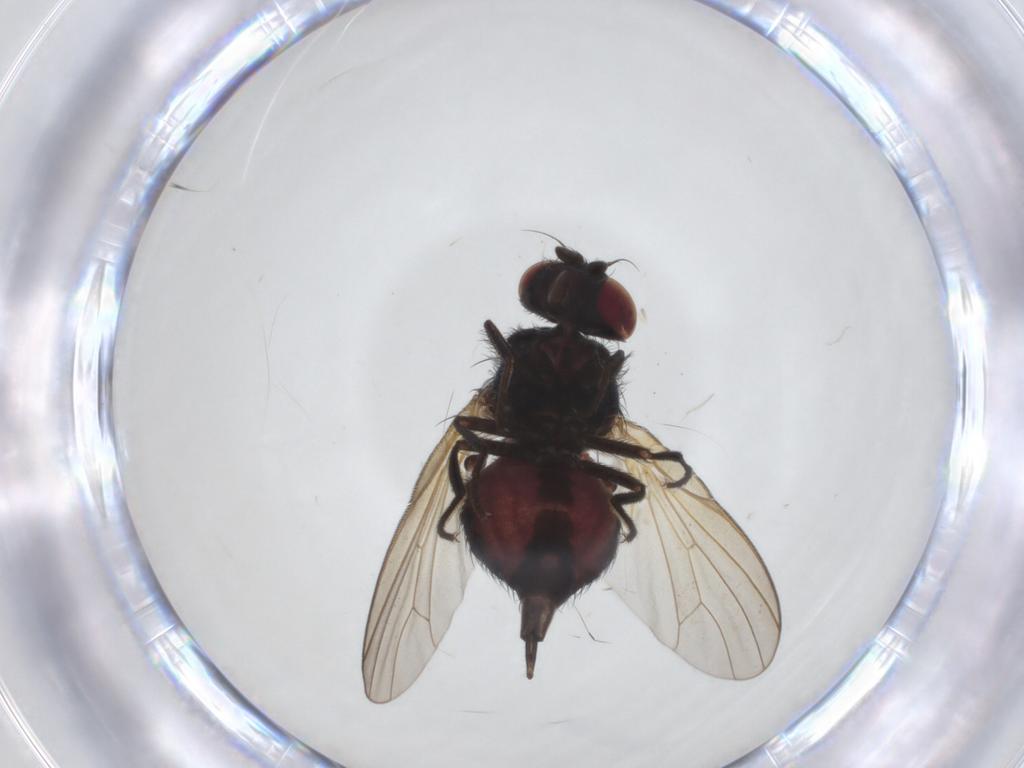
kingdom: Animalia
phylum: Arthropoda
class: Insecta
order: Diptera
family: Lonchaeidae
